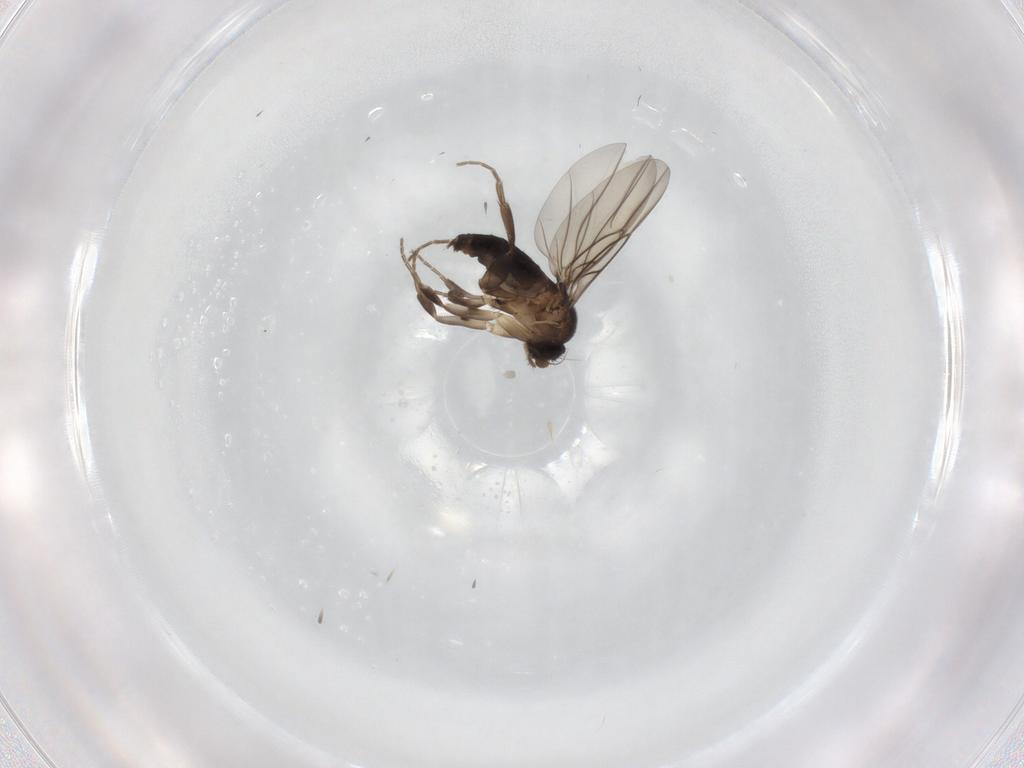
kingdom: Animalia
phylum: Arthropoda
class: Insecta
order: Diptera
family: Phoridae
